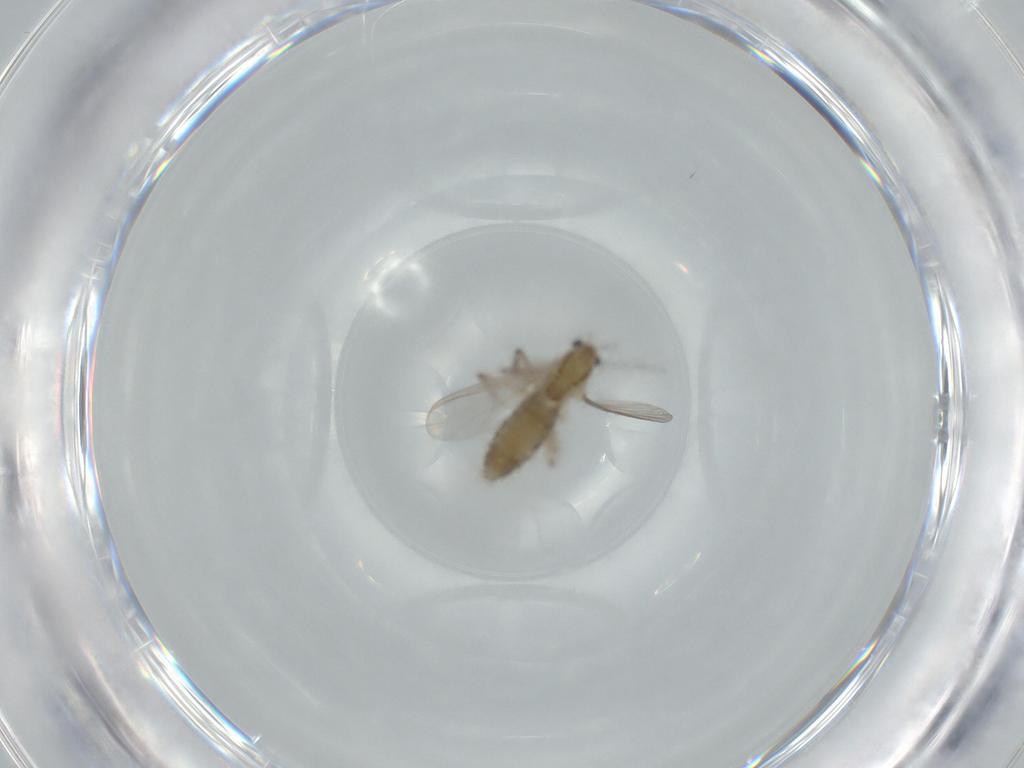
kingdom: Animalia
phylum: Arthropoda
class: Insecta
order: Diptera
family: Chironomidae
